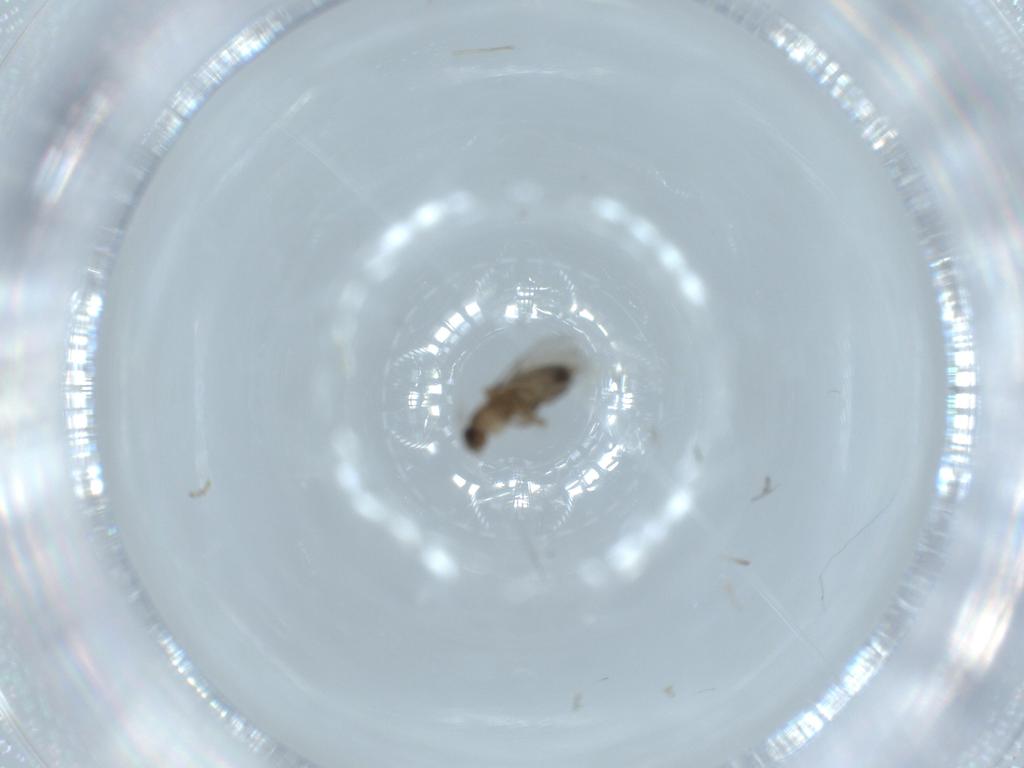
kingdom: Animalia
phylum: Arthropoda
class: Insecta
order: Diptera
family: Phoridae
